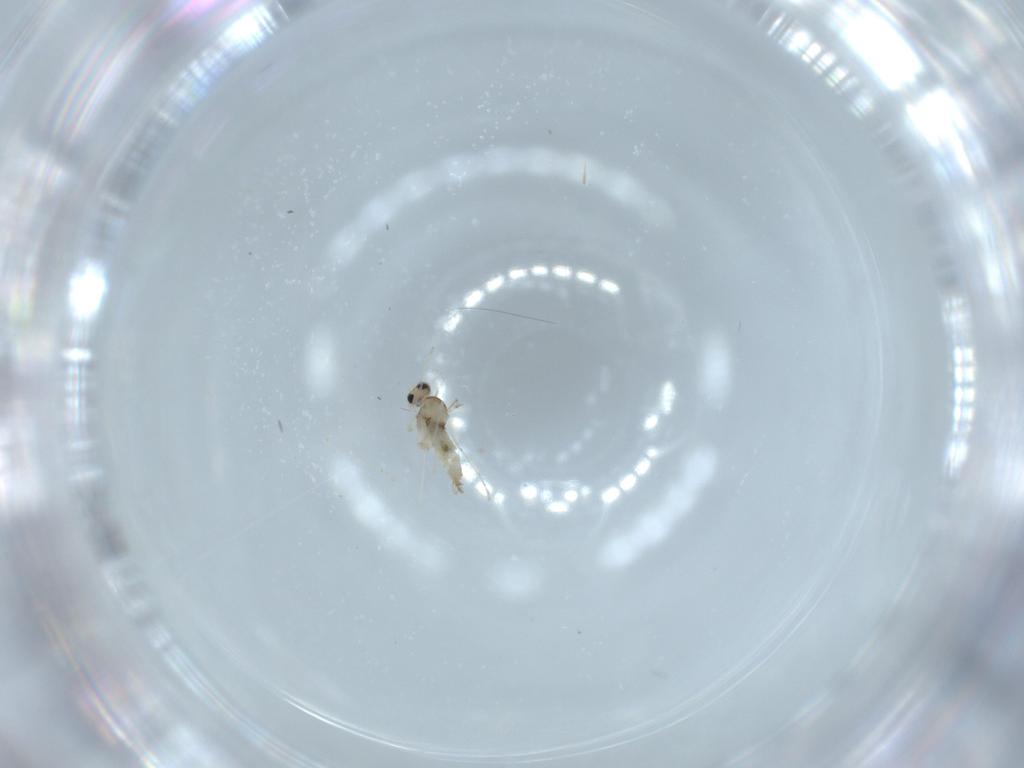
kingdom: Animalia
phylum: Arthropoda
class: Insecta
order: Diptera
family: Cecidomyiidae
